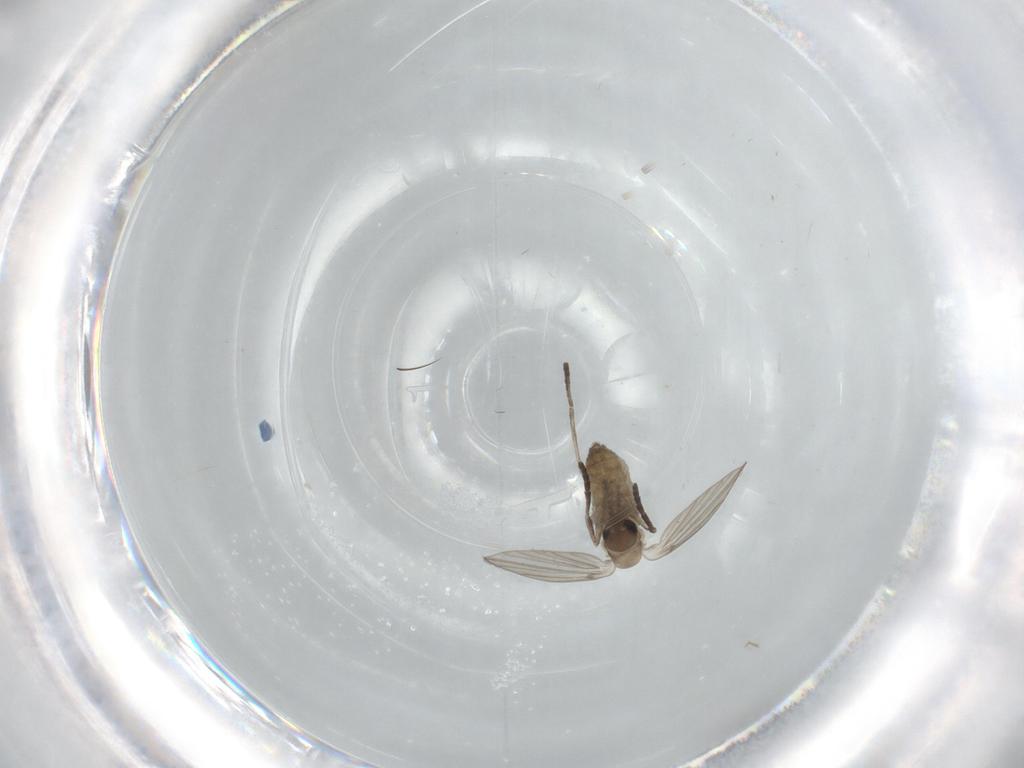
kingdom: Animalia
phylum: Arthropoda
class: Insecta
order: Diptera
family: Psychodidae
